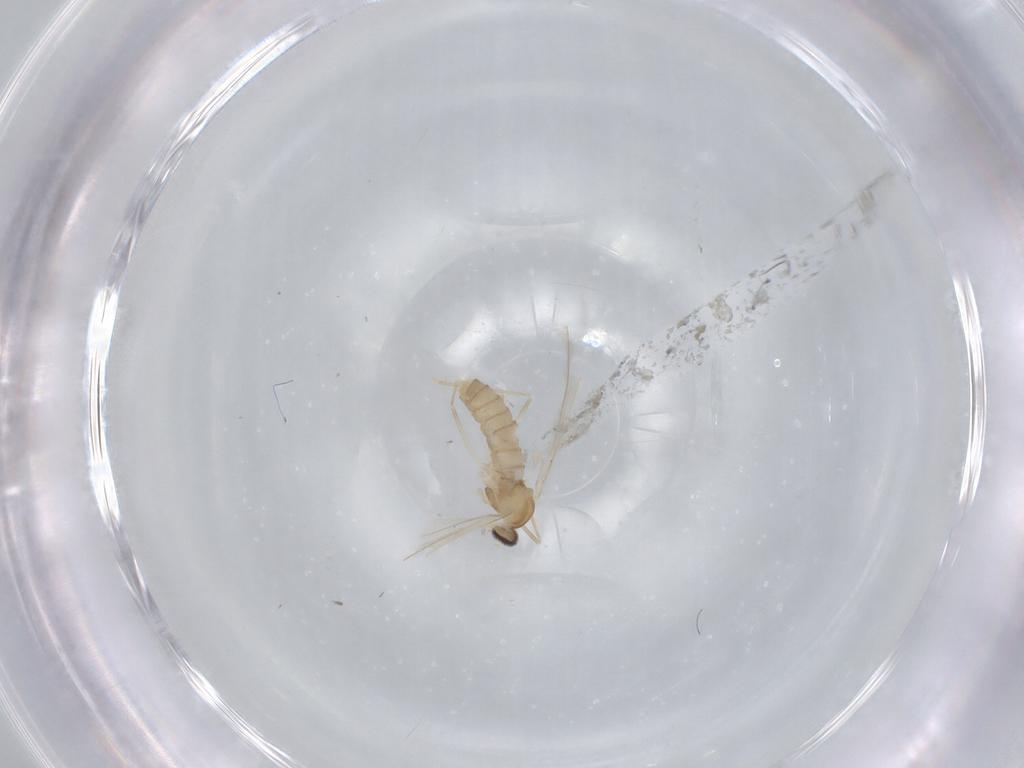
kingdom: Animalia
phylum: Arthropoda
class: Insecta
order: Diptera
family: Cecidomyiidae
